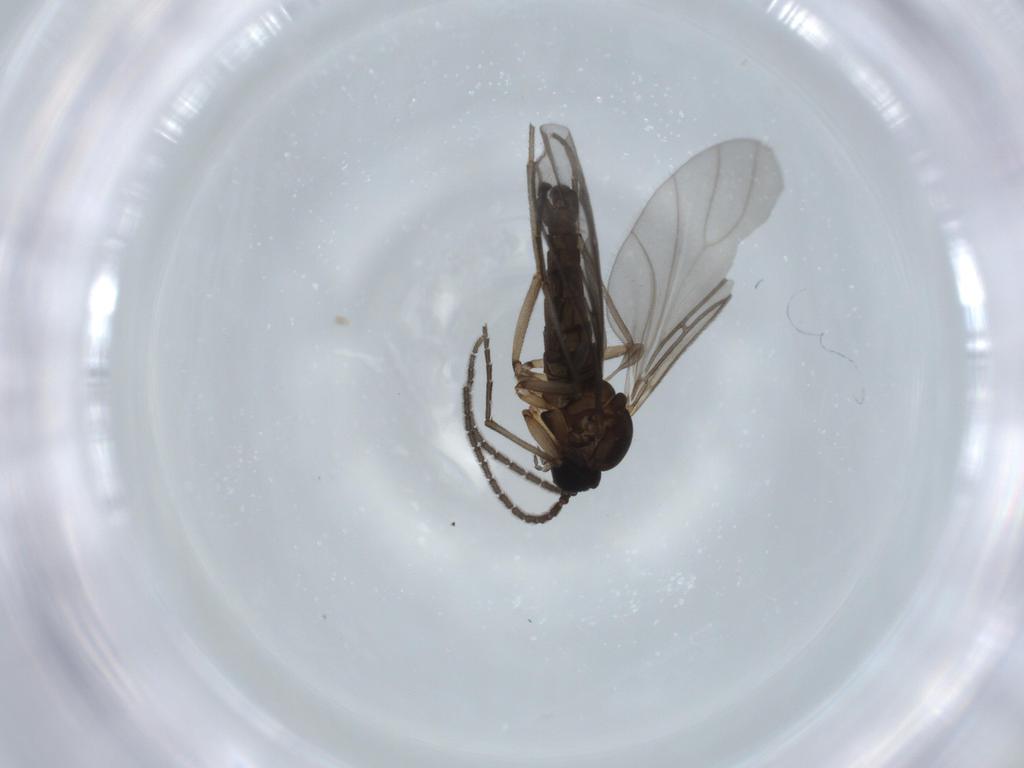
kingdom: Animalia
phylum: Arthropoda
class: Insecta
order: Diptera
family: Sciaridae
